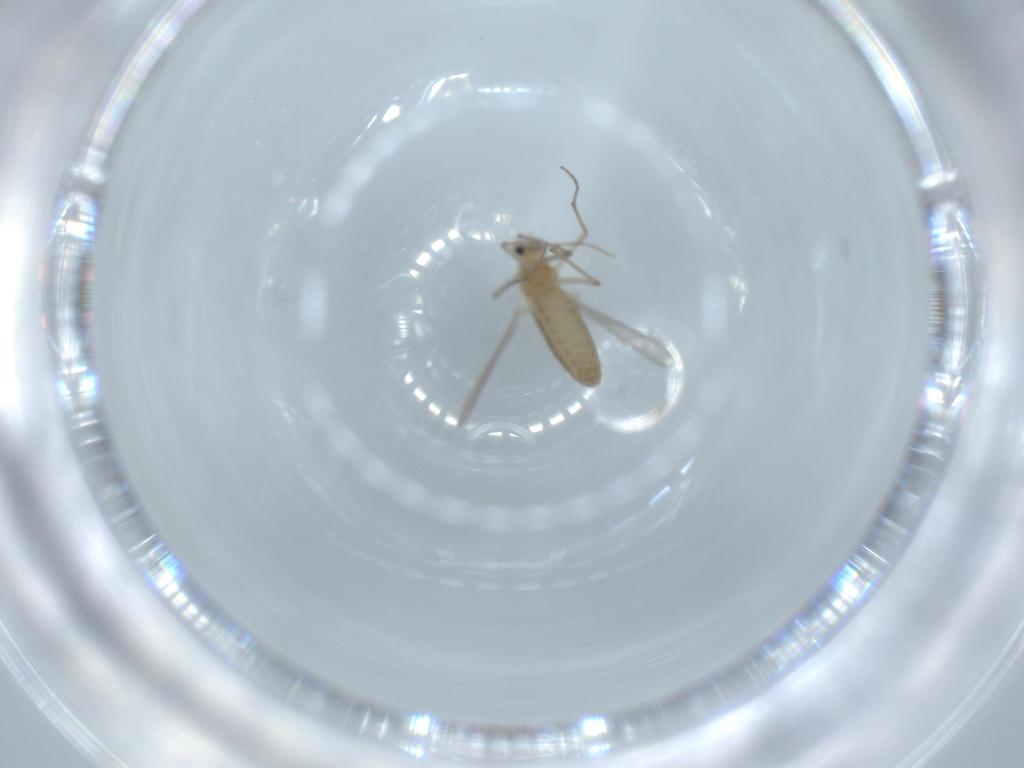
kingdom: Animalia
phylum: Arthropoda
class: Insecta
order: Diptera
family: Chironomidae
